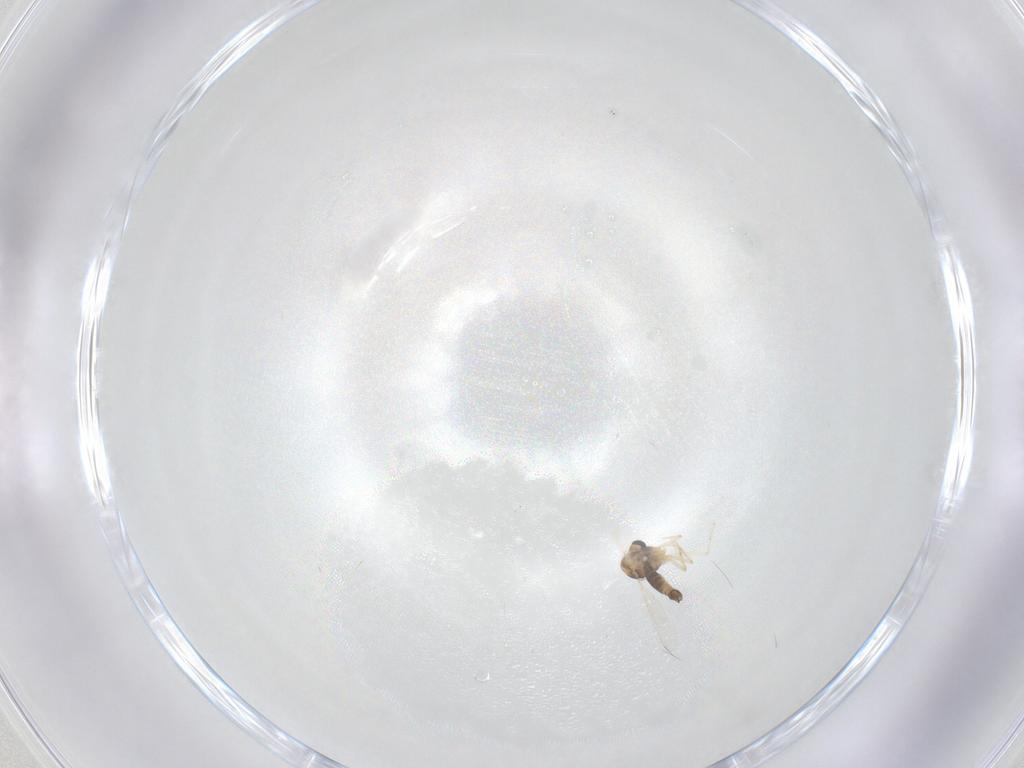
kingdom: Animalia
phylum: Arthropoda
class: Insecta
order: Diptera
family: Chironomidae
